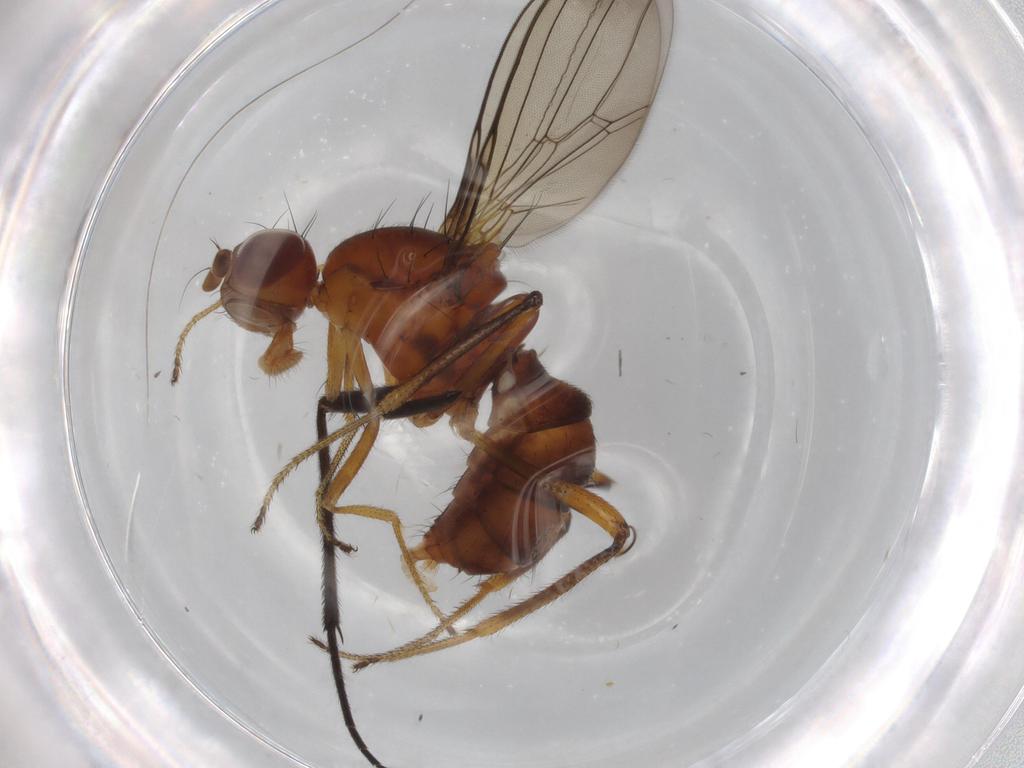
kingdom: Animalia
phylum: Arthropoda
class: Insecta
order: Diptera
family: Sepsidae
